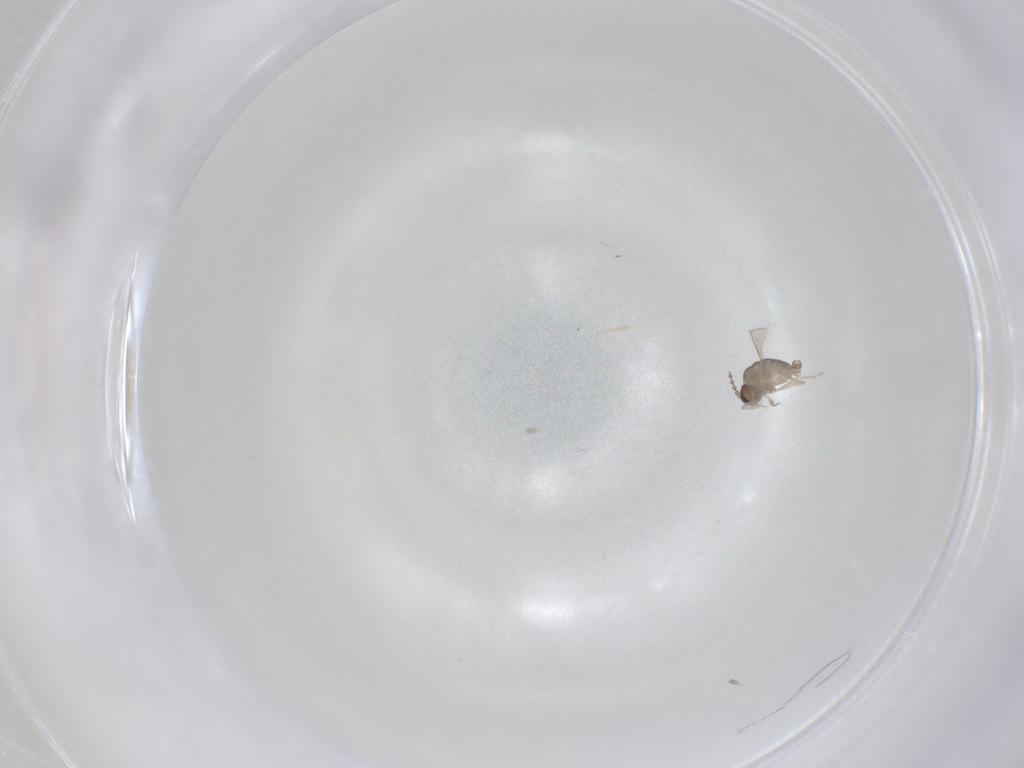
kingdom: Animalia
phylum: Arthropoda
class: Insecta
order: Diptera
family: Cecidomyiidae
